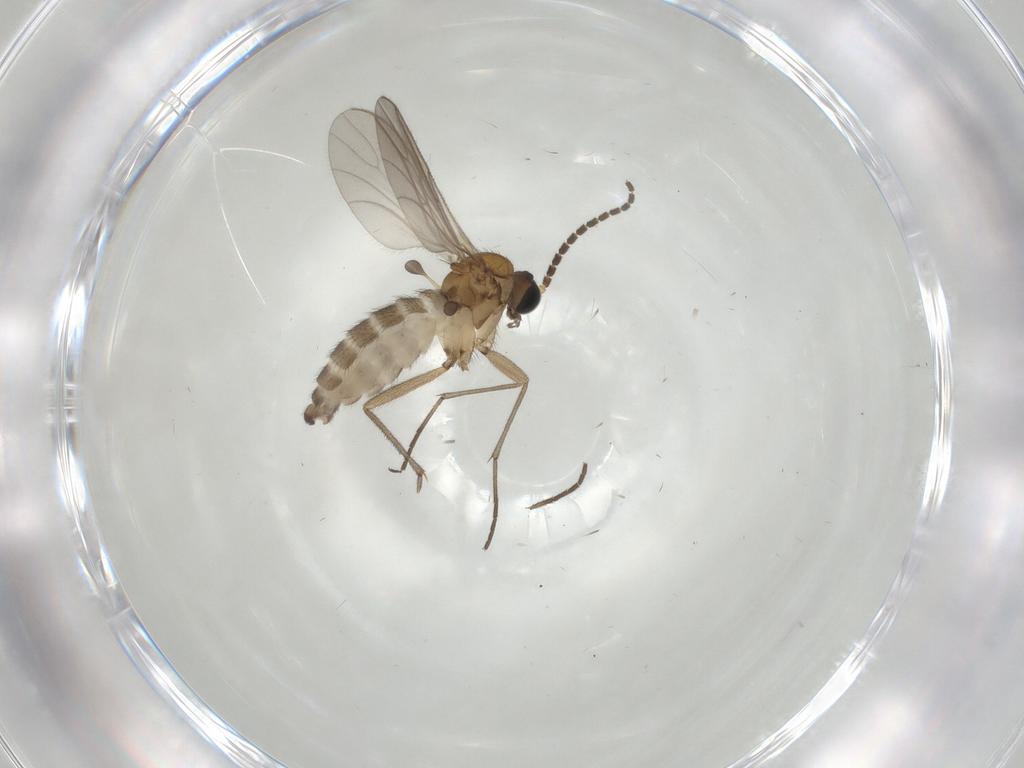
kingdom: Animalia
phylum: Arthropoda
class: Insecta
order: Diptera
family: Sciaridae
